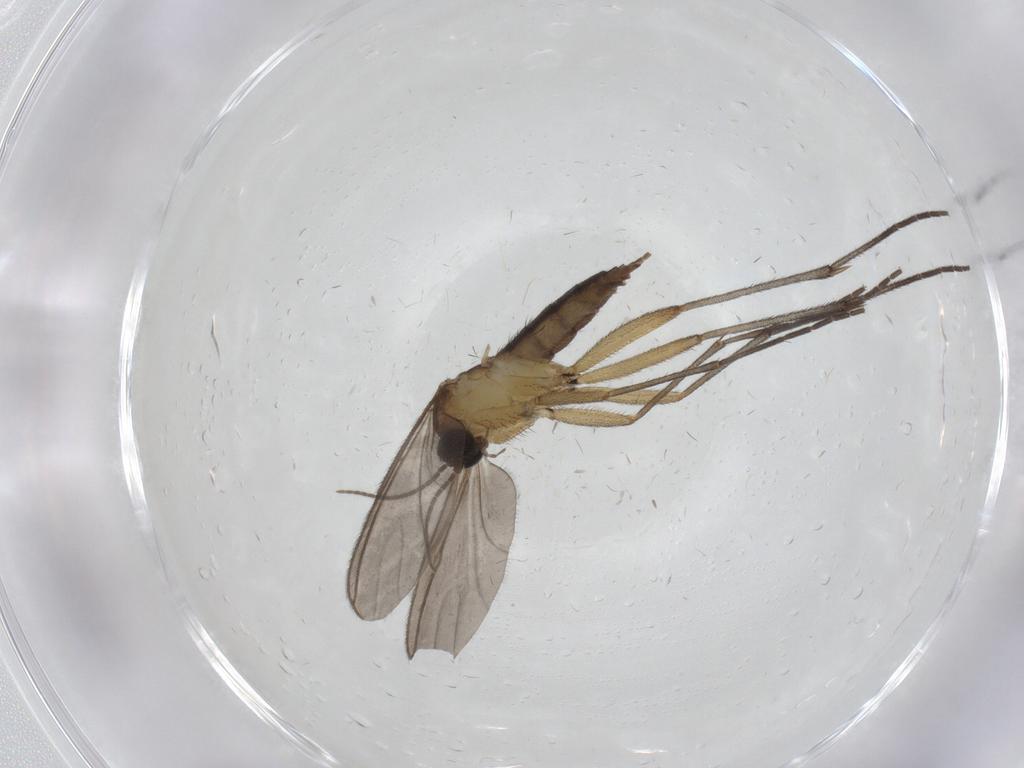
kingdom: Animalia
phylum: Arthropoda
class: Insecta
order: Diptera
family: Sciaridae
